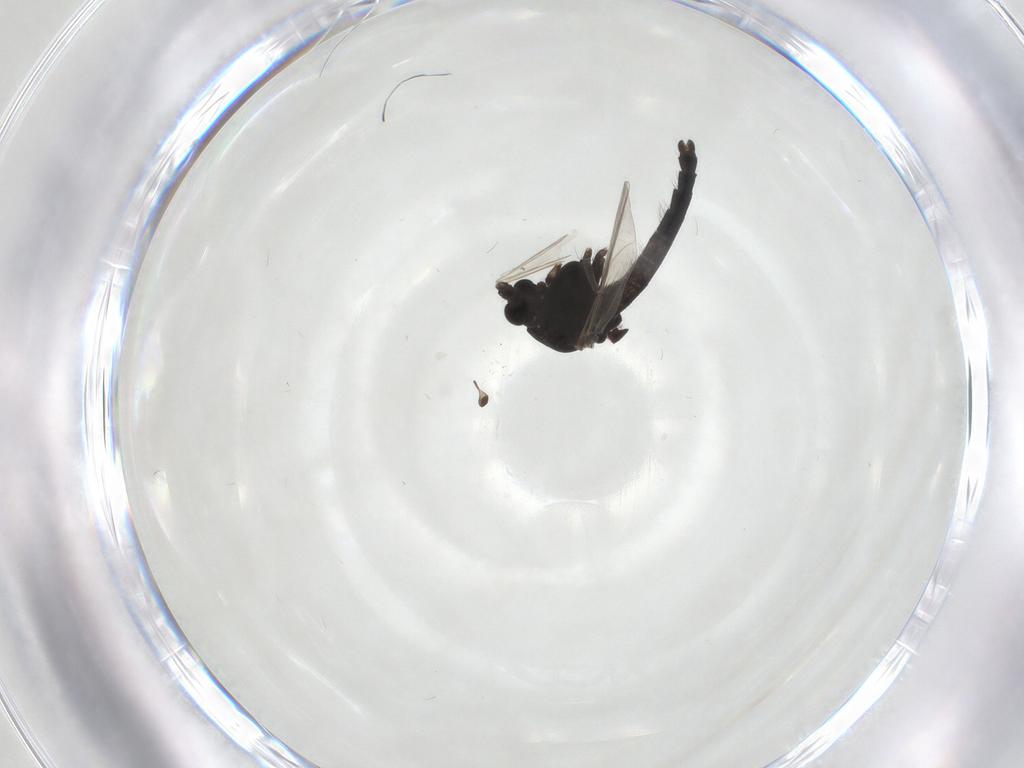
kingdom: Animalia
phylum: Arthropoda
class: Insecta
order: Diptera
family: Chironomidae
